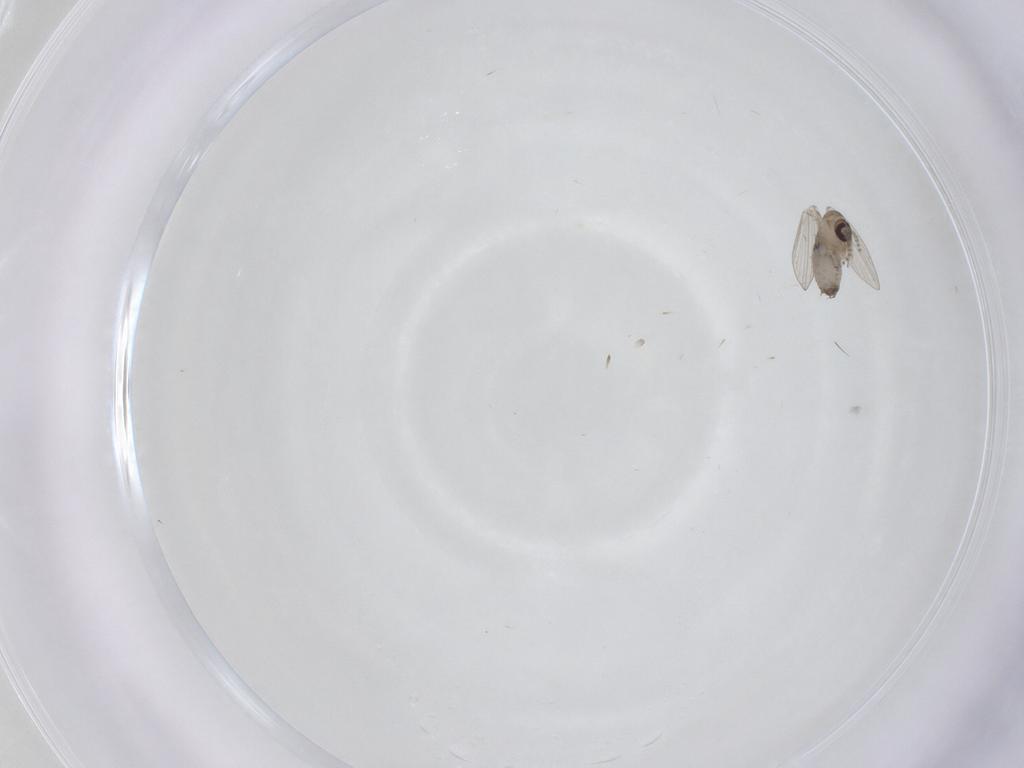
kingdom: Animalia
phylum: Arthropoda
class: Insecta
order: Diptera
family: Psychodidae
